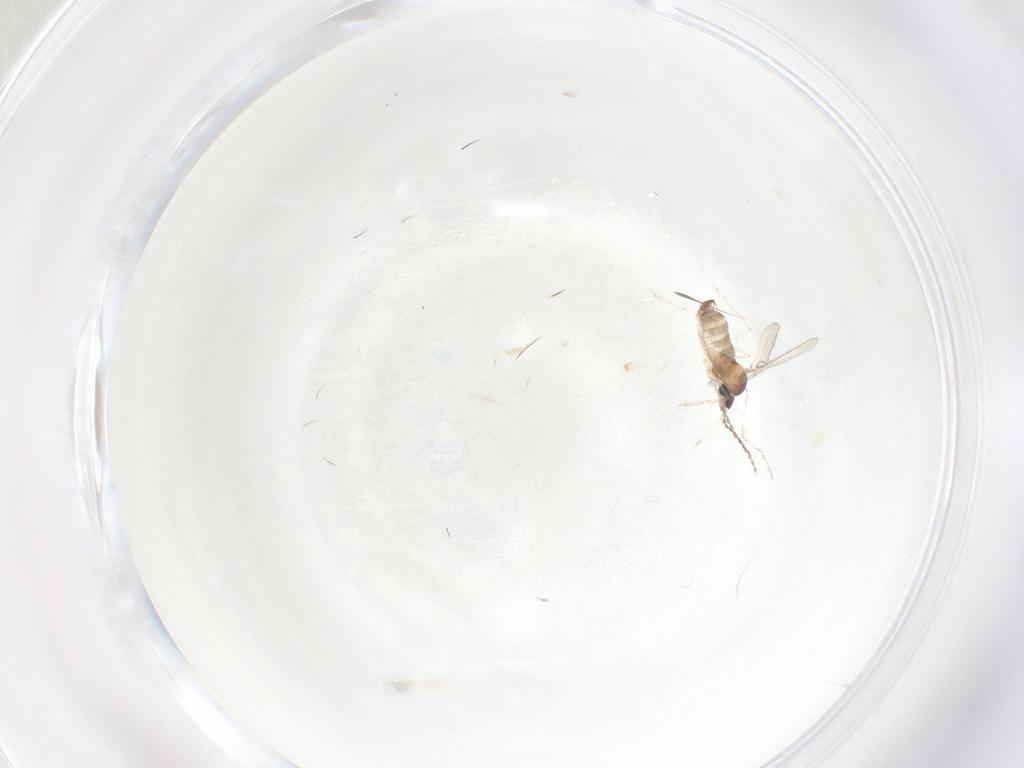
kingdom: Animalia
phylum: Arthropoda
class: Insecta
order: Diptera
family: Cecidomyiidae
